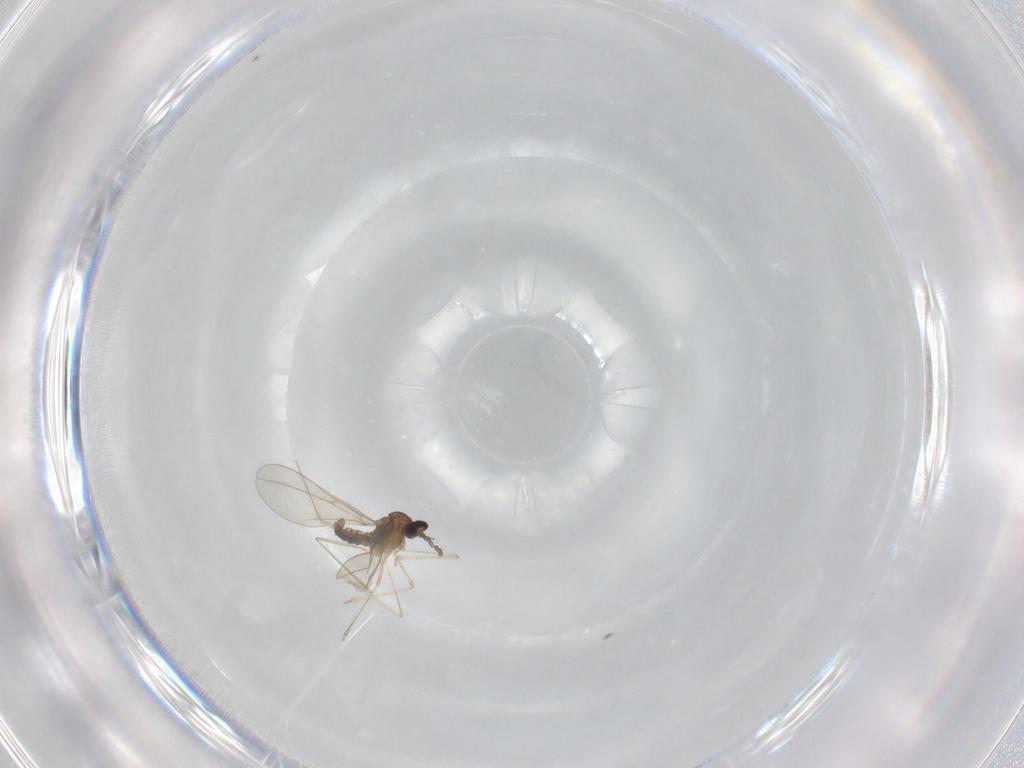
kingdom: Animalia
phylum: Arthropoda
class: Insecta
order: Diptera
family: Cecidomyiidae
